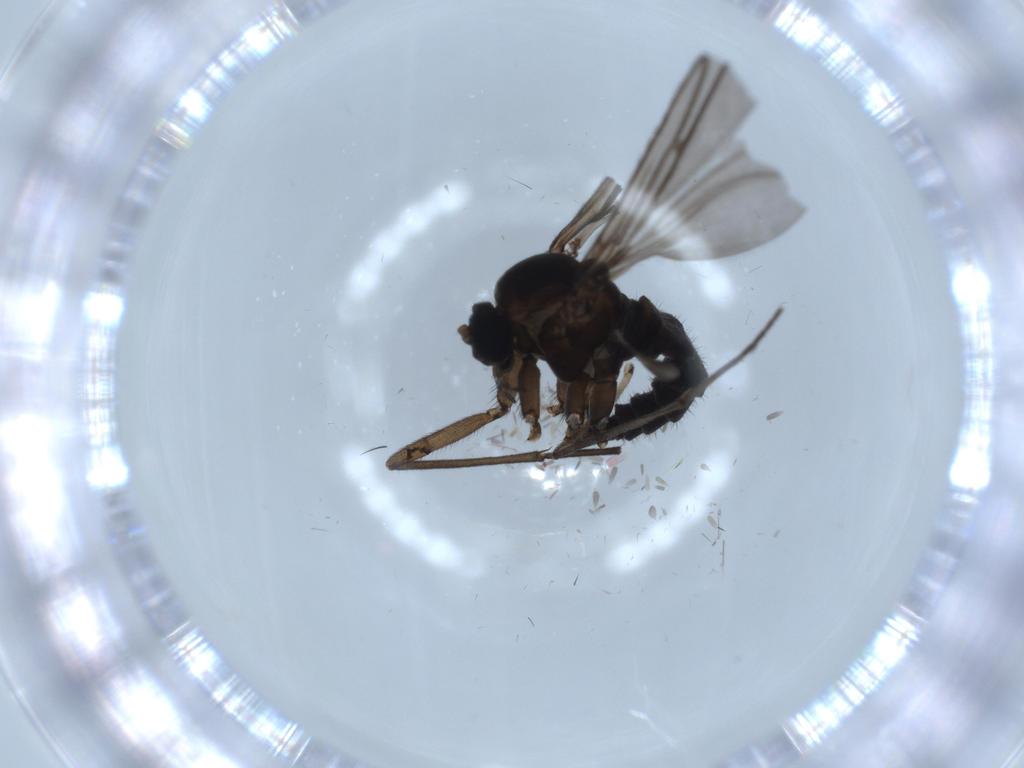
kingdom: Animalia
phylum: Arthropoda
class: Insecta
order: Diptera
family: Sciaridae
